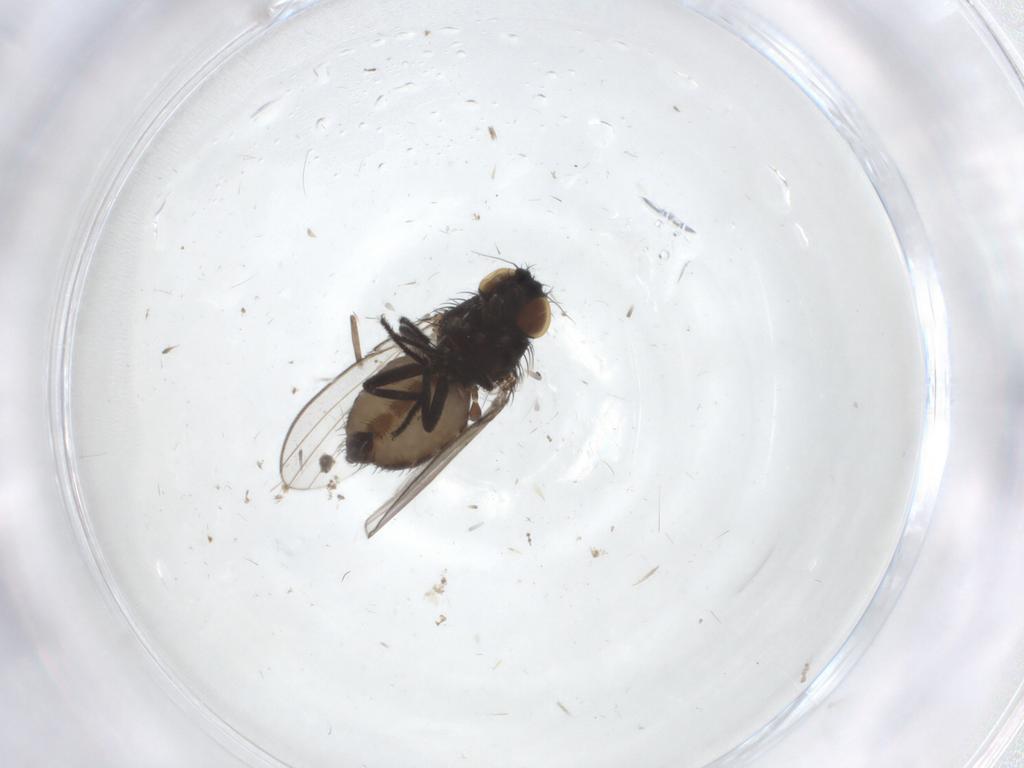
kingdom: Animalia
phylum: Arthropoda
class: Insecta
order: Diptera
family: Milichiidae
